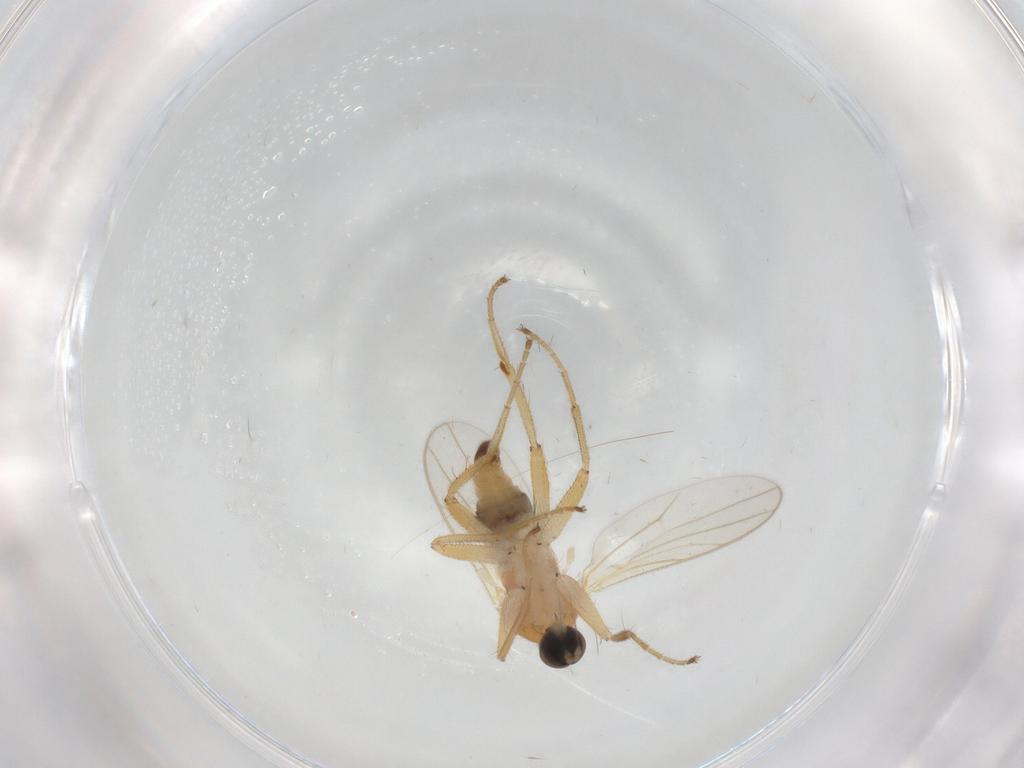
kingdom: Animalia
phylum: Arthropoda
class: Insecta
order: Diptera
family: Hybotidae
